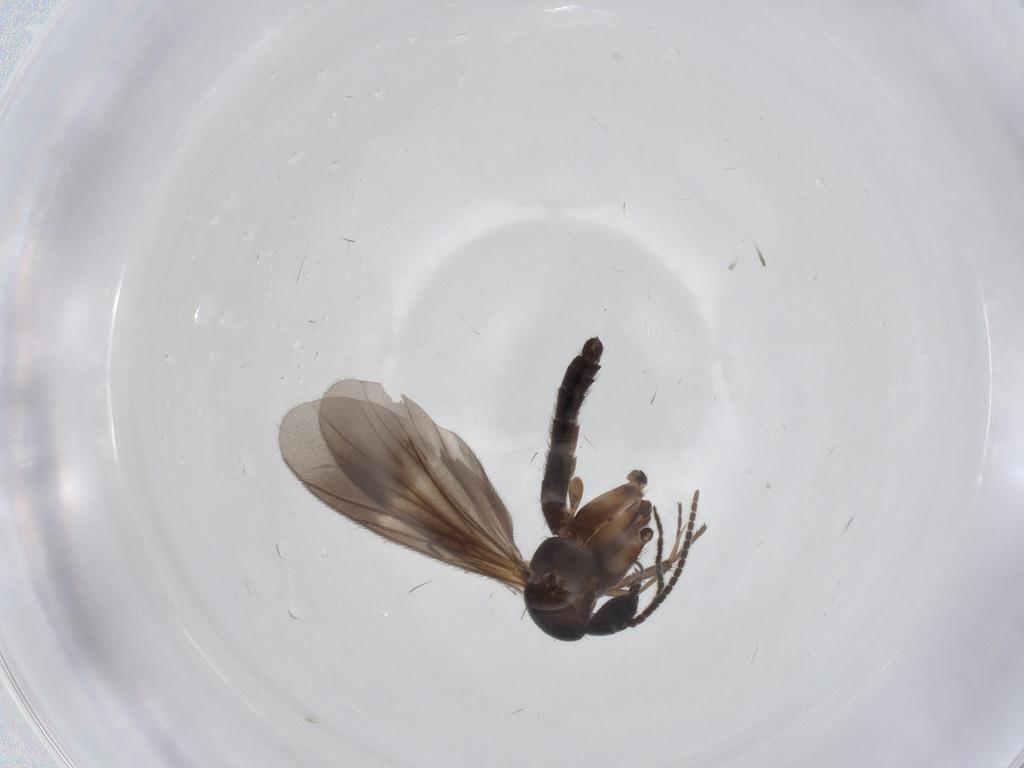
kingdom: Animalia
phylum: Arthropoda
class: Insecta
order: Diptera
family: Mycetophilidae
